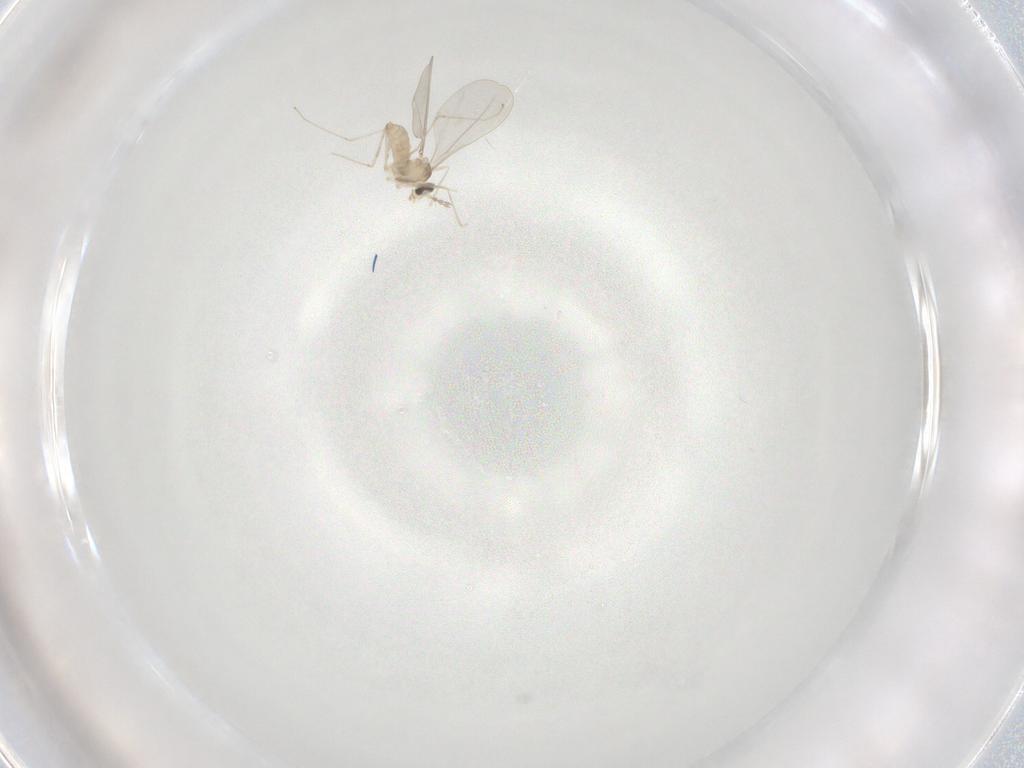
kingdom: Animalia
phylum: Arthropoda
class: Insecta
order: Diptera
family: Cecidomyiidae
